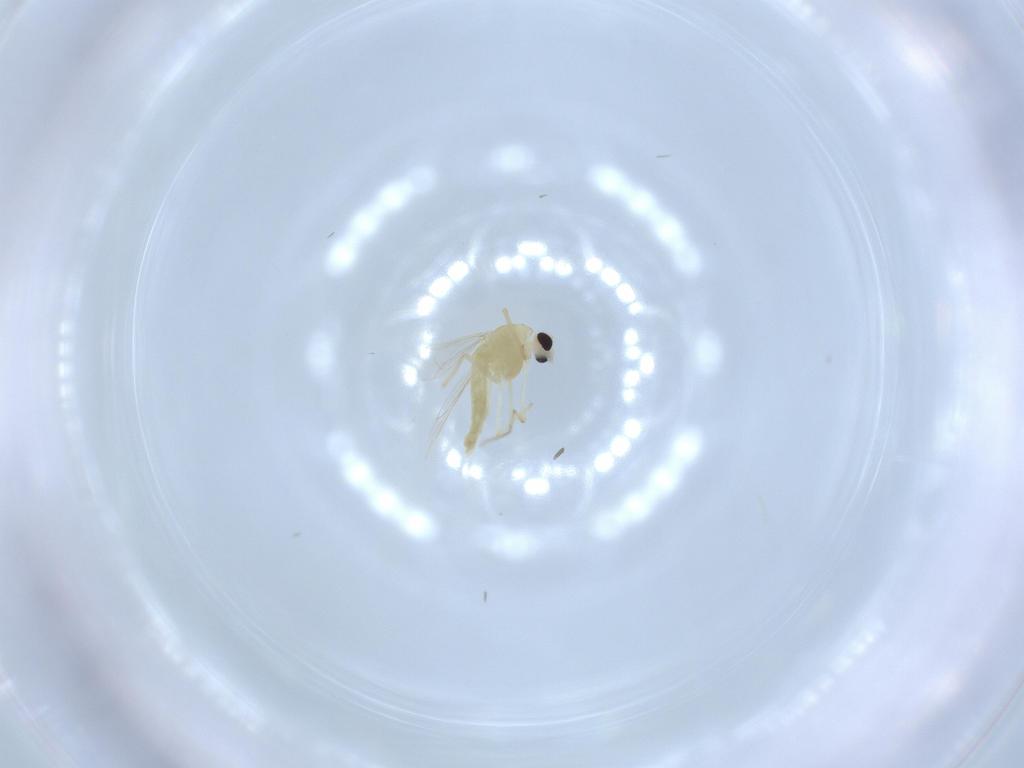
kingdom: Animalia
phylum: Arthropoda
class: Insecta
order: Diptera
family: Chironomidae
